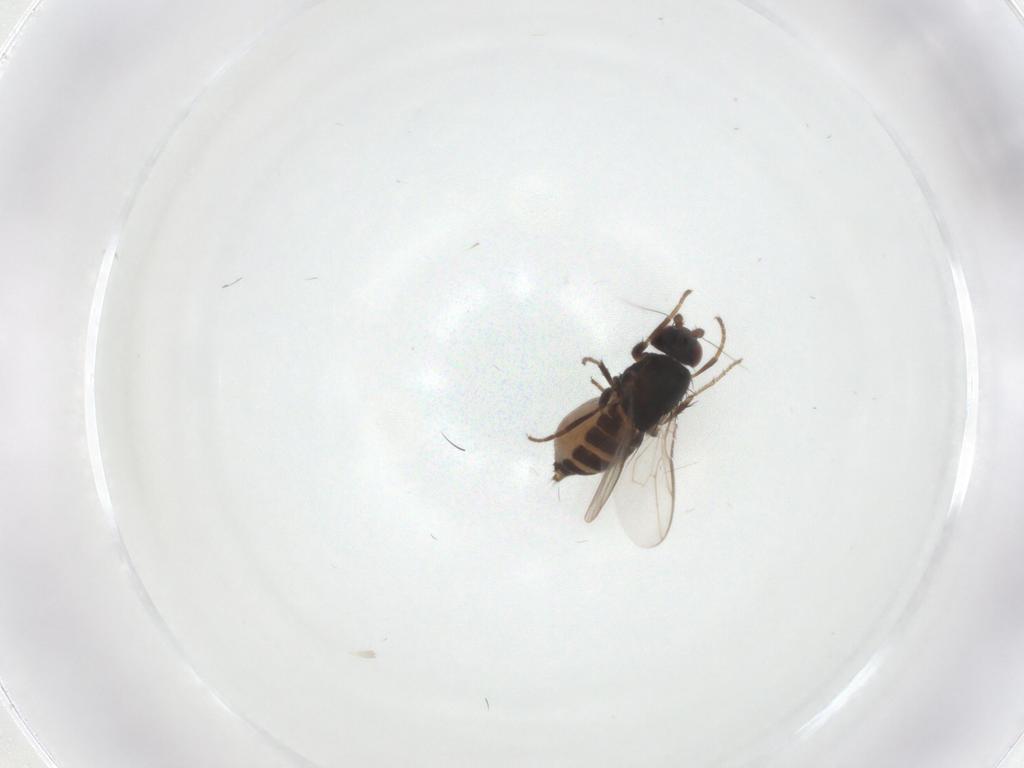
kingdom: Animalia
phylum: Arthropoda
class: Insecta
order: Diptera
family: Sphaeroceridae
